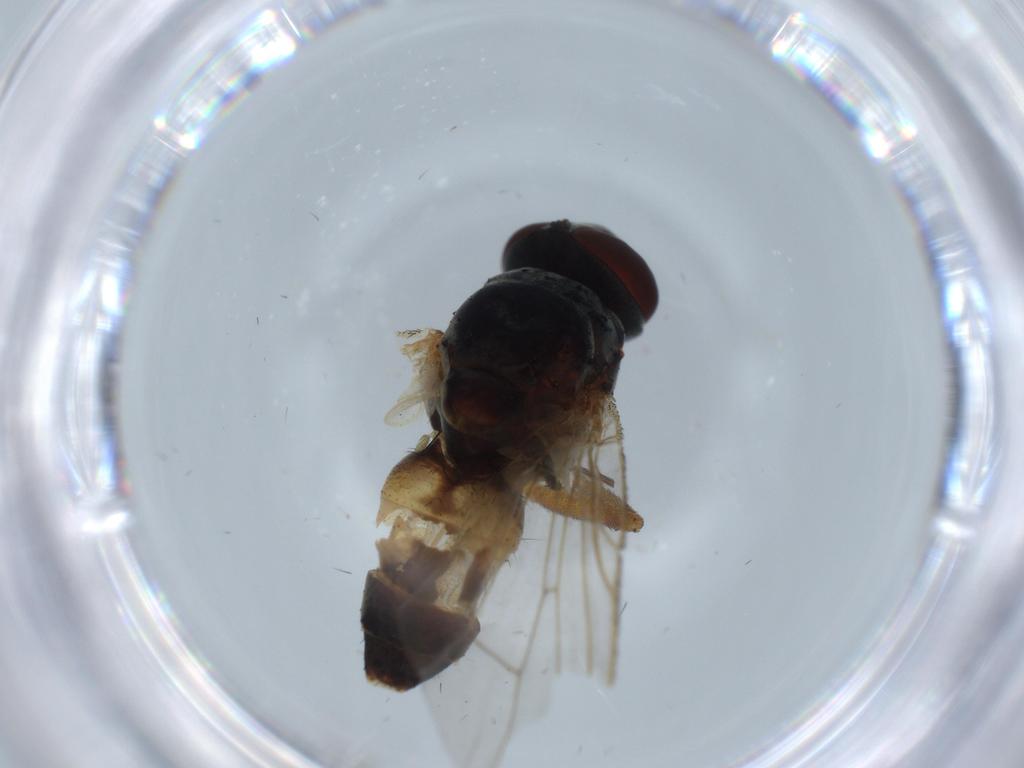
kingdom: Animalia
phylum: Arthropoda
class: Insecta
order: Diptera
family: Muscidae
